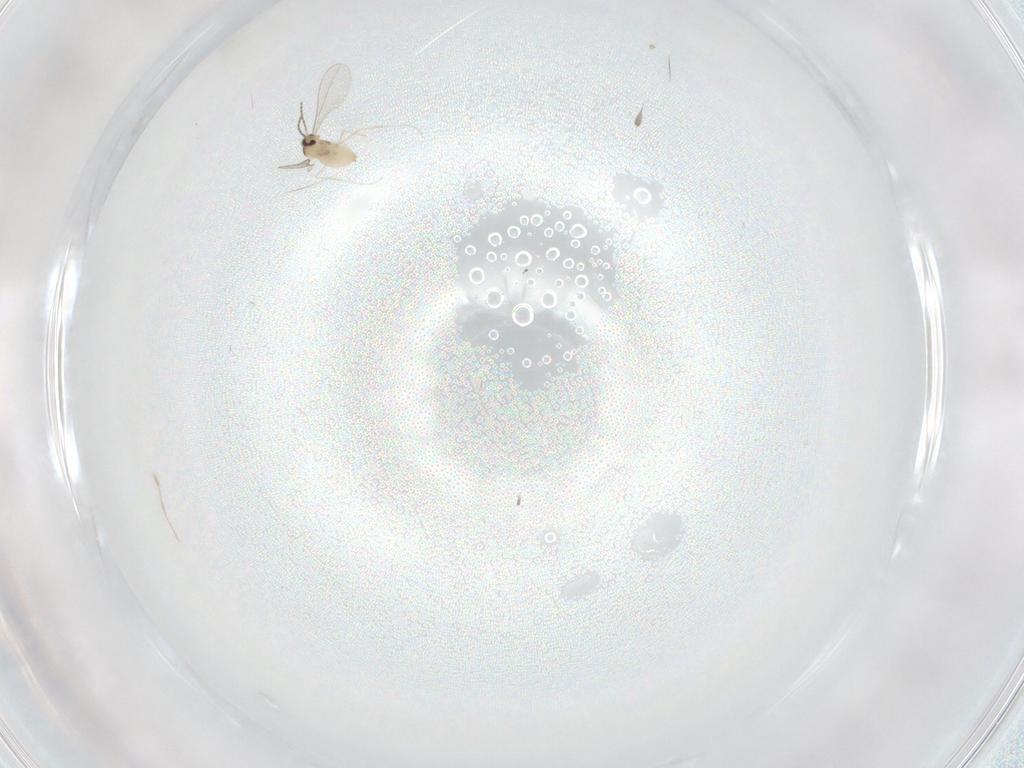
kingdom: Animalia
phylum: Arthropoda
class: Insecta
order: Diptera
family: Cecidomyiidae
